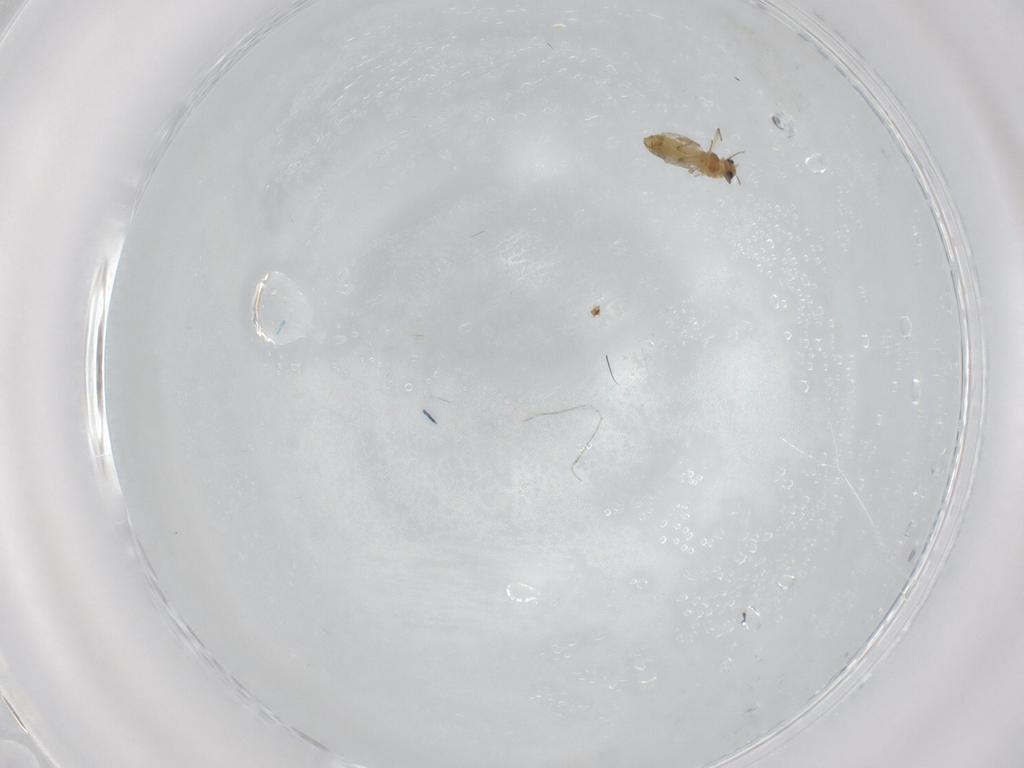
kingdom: Animalia
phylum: Arthropoda
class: Insecta
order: Diptera
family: Chironomidae
